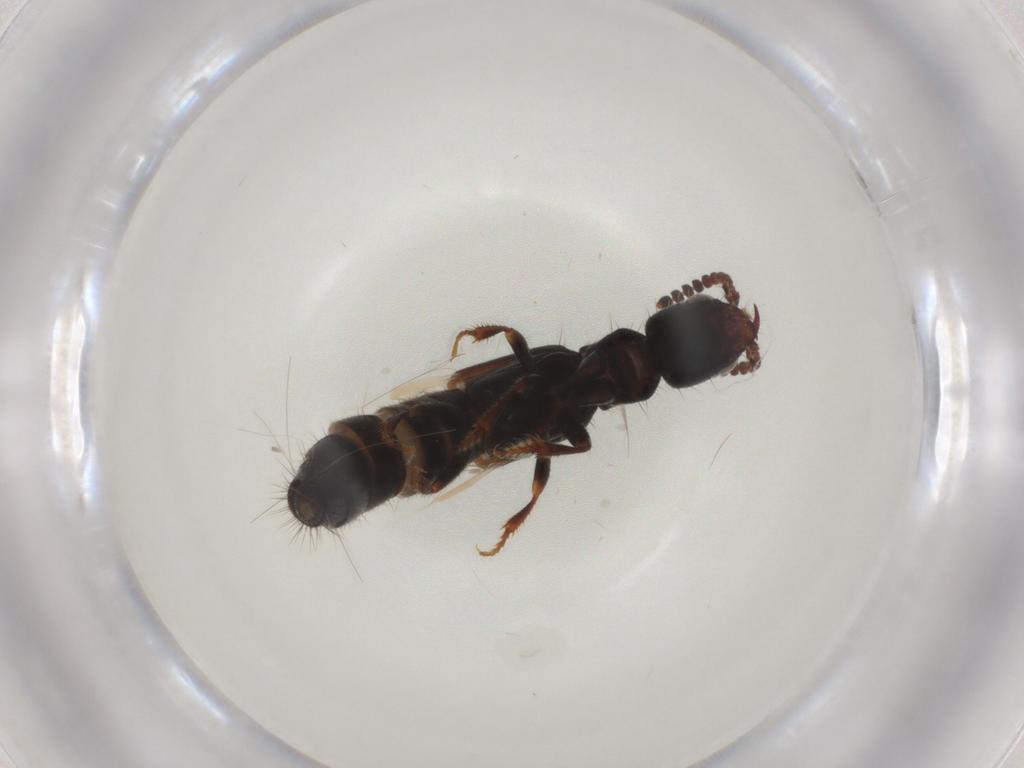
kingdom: Animalia
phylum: Arthropoda
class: Insecta
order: Coleoptera
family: Staphylinidae
